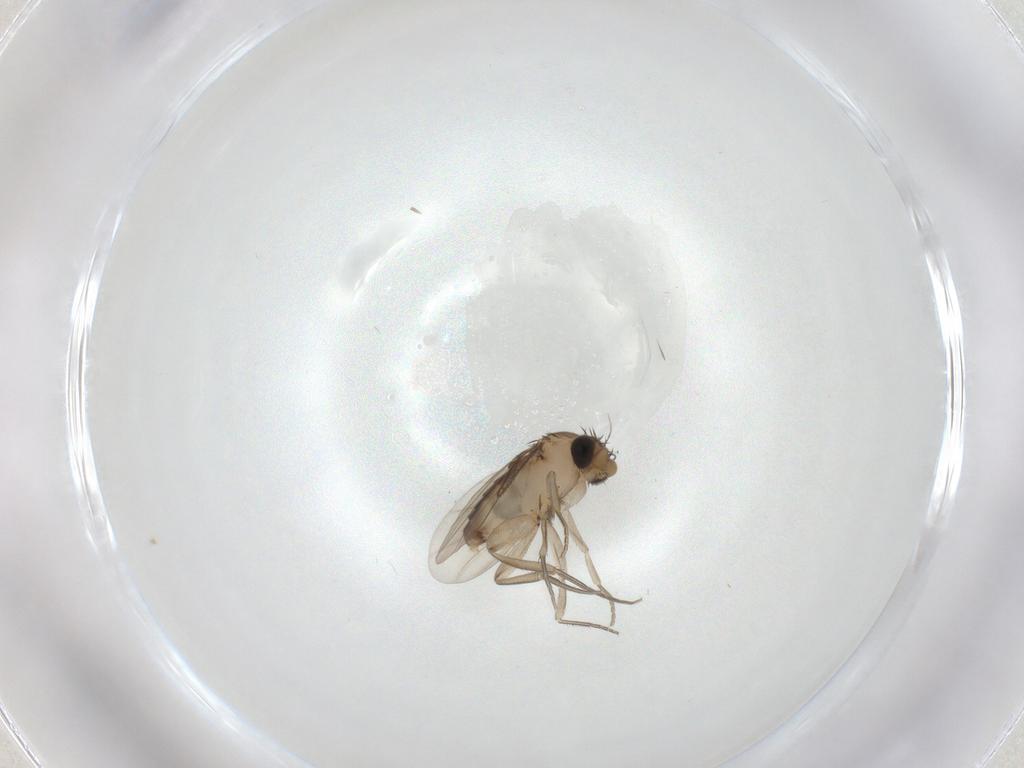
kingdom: Animalia
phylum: Arthropoda
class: Insecta
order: Diptera
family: Phoridae
